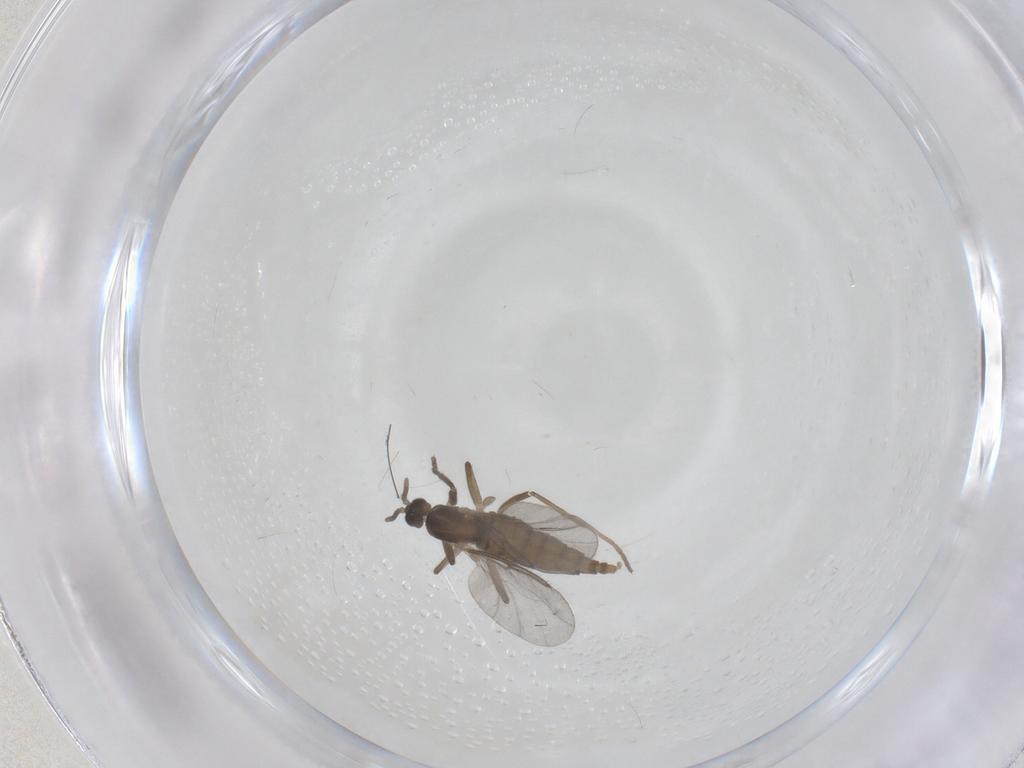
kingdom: Animalia
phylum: Arthropoda
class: Insecta
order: Diptera
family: Cecidomyiidae
